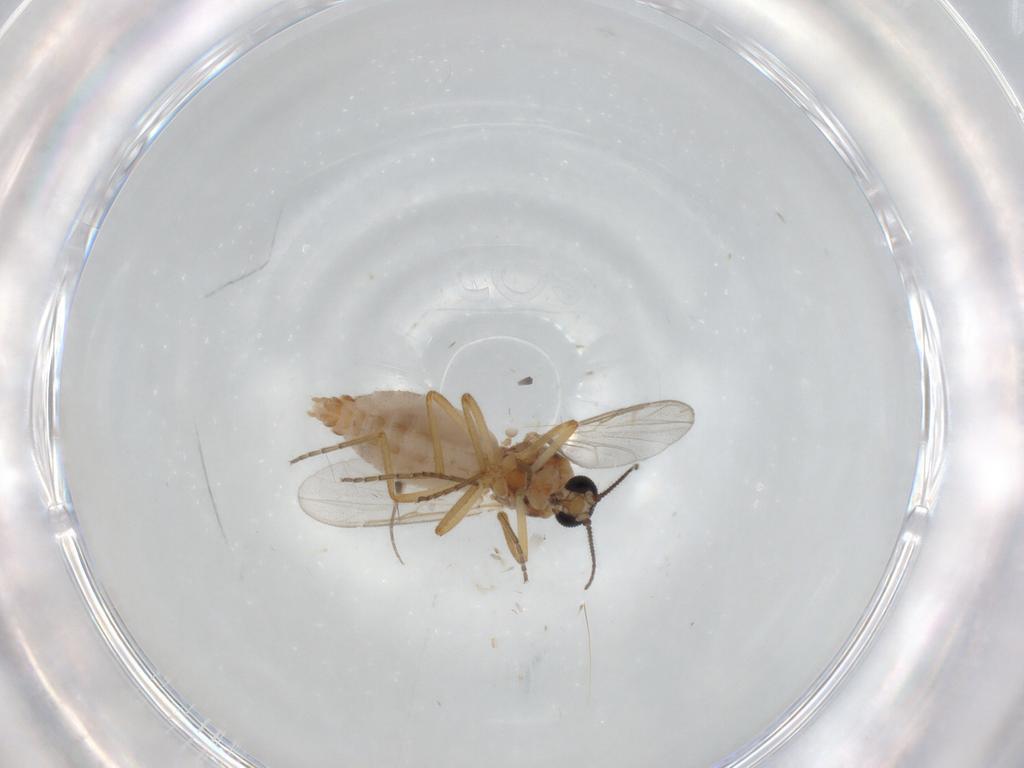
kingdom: Animalia
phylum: Arthropoda
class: Insecta
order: Diptera
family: Ceratopogonidae
